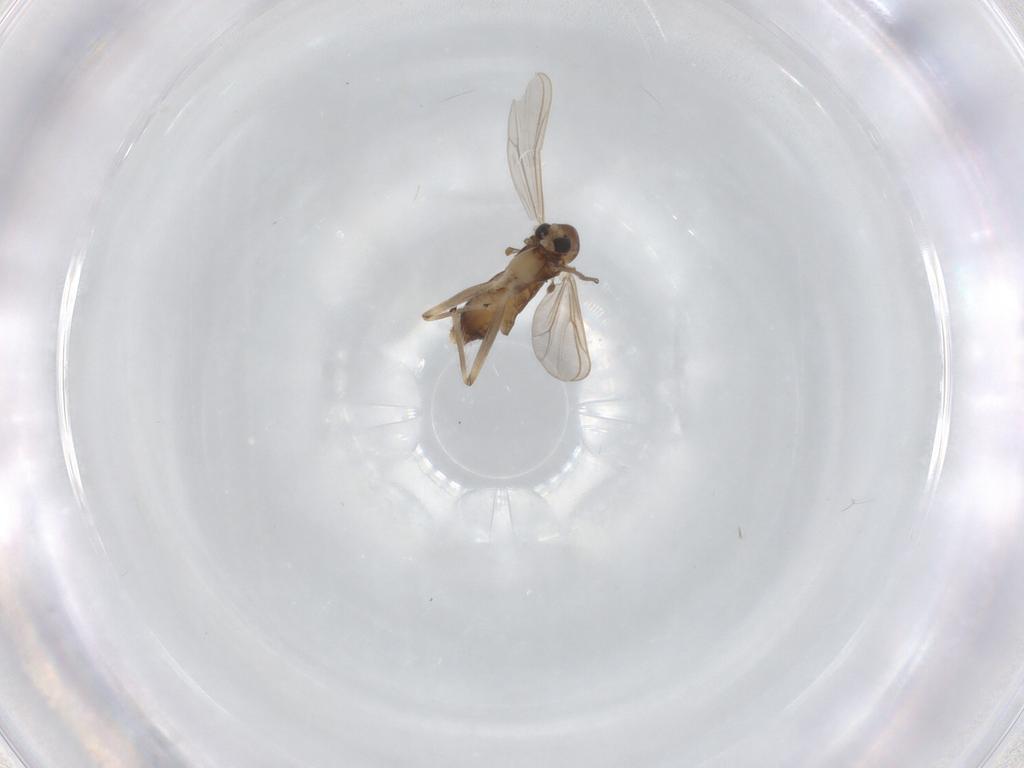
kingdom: Animalia
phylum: Arthropoda
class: Insecta
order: Diptera
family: Chironomidae
